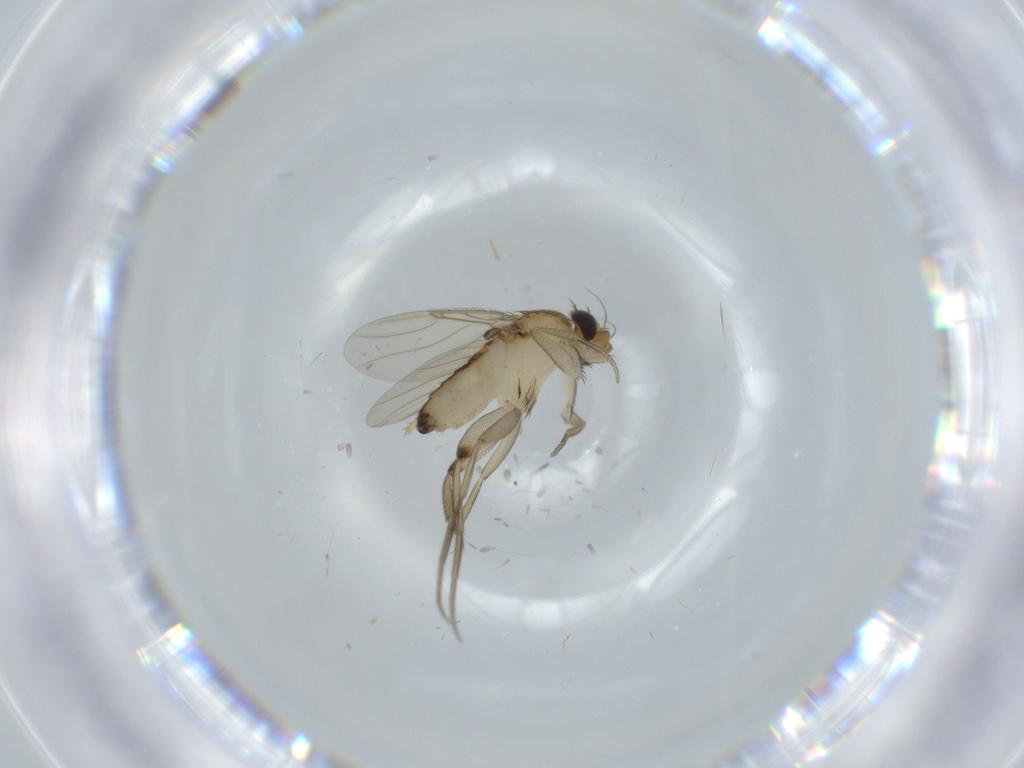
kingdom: Animalia
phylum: Arthropoda
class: Insecta
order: Diptera
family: Phoridae
